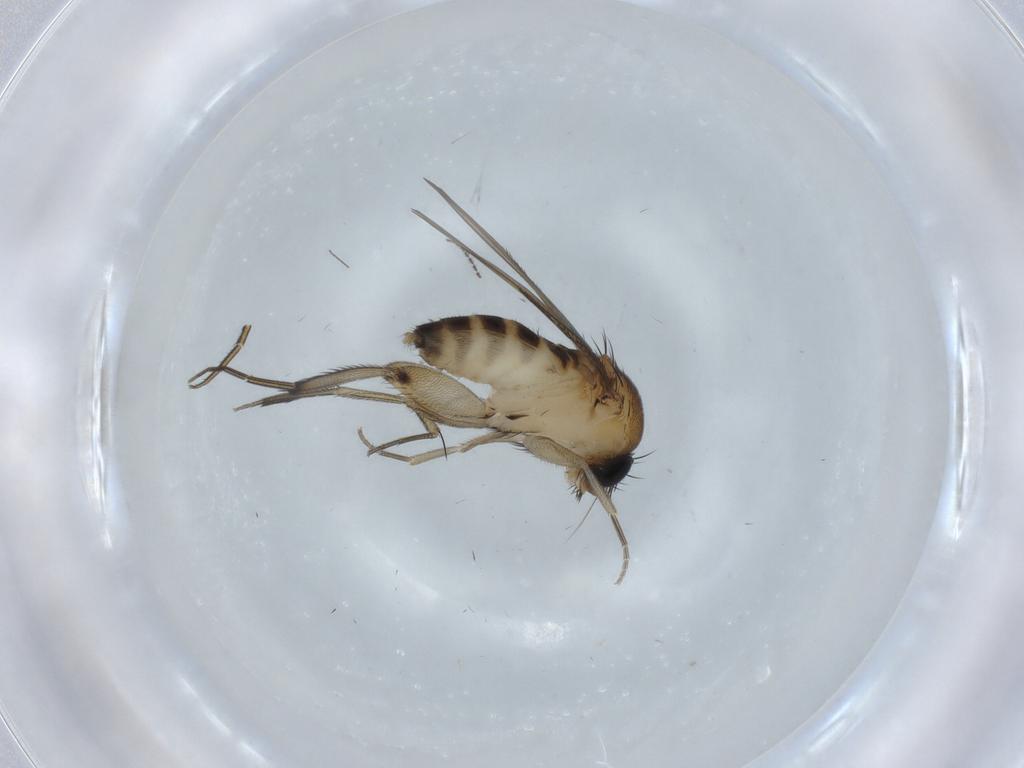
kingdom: Animalia
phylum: Arthropoda
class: Insecta
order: Diptera
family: Phoridae
